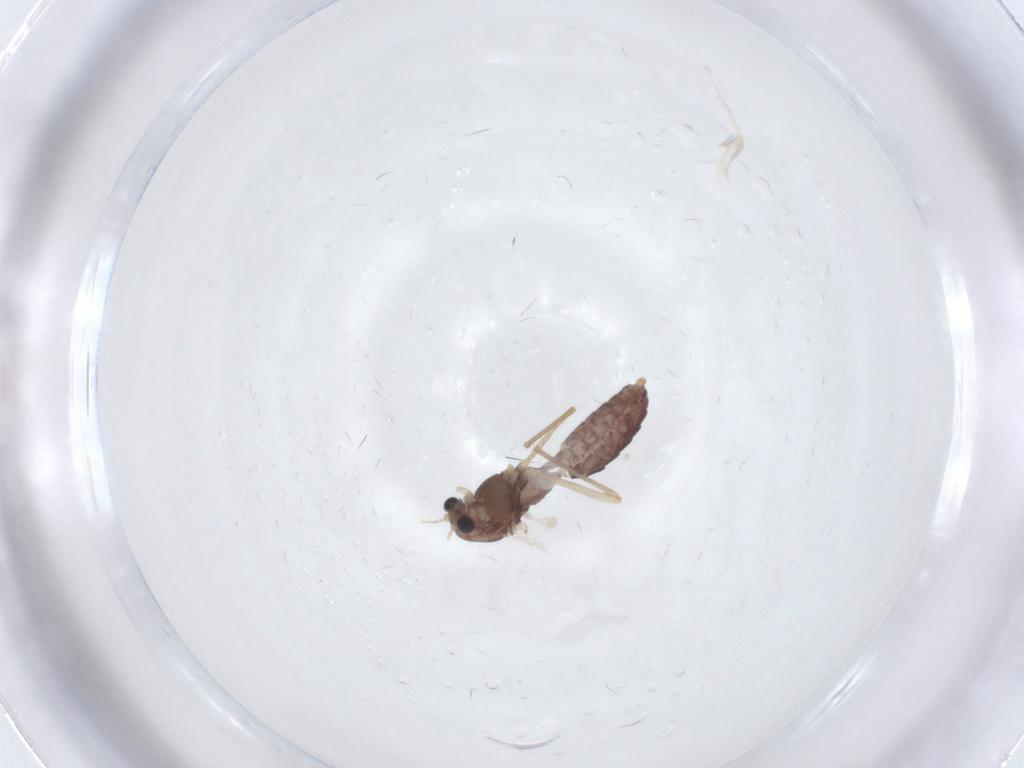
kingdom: Animalia
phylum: Arthropoda
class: Insecta
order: Diptera
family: Chironomidae
